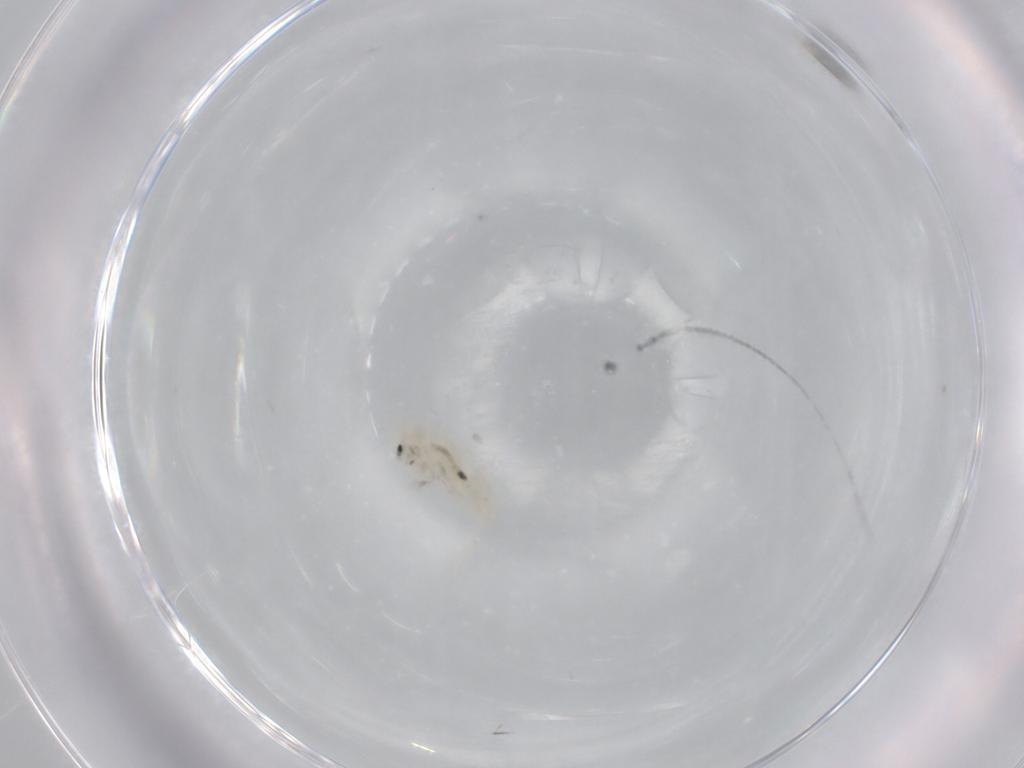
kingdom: Animalia
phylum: Arthropoda
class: Collembola
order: Entomobryomorpha
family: Entomobryidae
